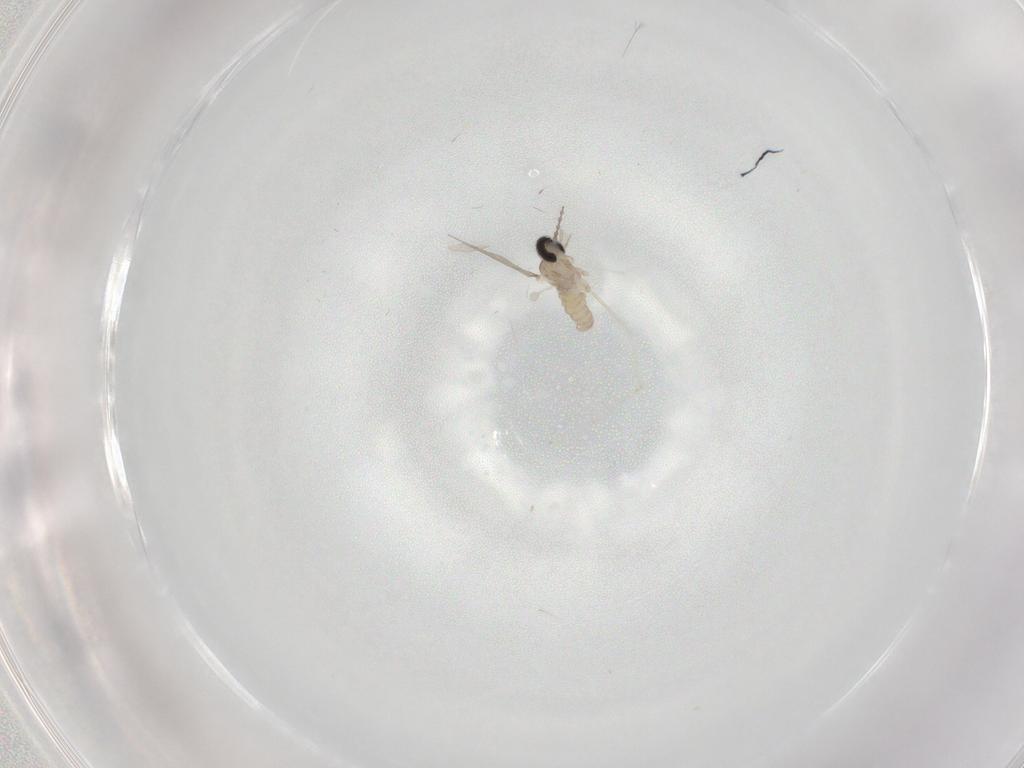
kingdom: Animalia
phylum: Arthropoda
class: Insecta
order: Diptera
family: Cecidomyiidae
